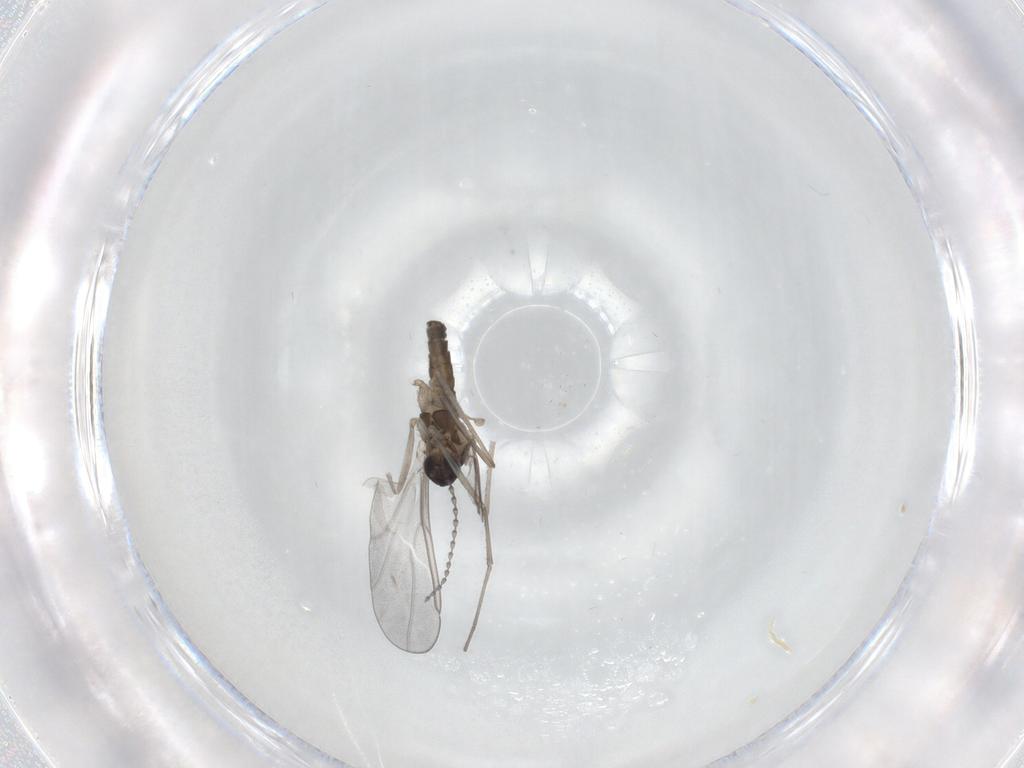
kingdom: Animalia
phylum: Arthropoda
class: Insecta
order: Diptera
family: Cecidomyiidae
